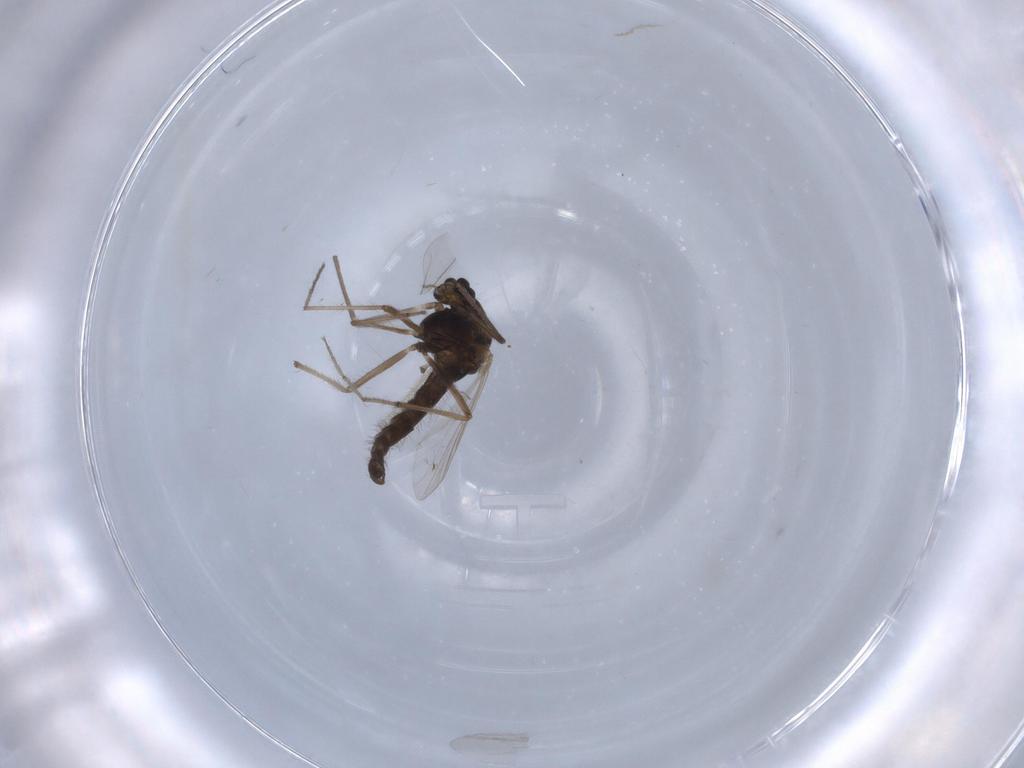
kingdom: Animalia
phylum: Arthropoda
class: Insecta
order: Diptera
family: Chironomidae
